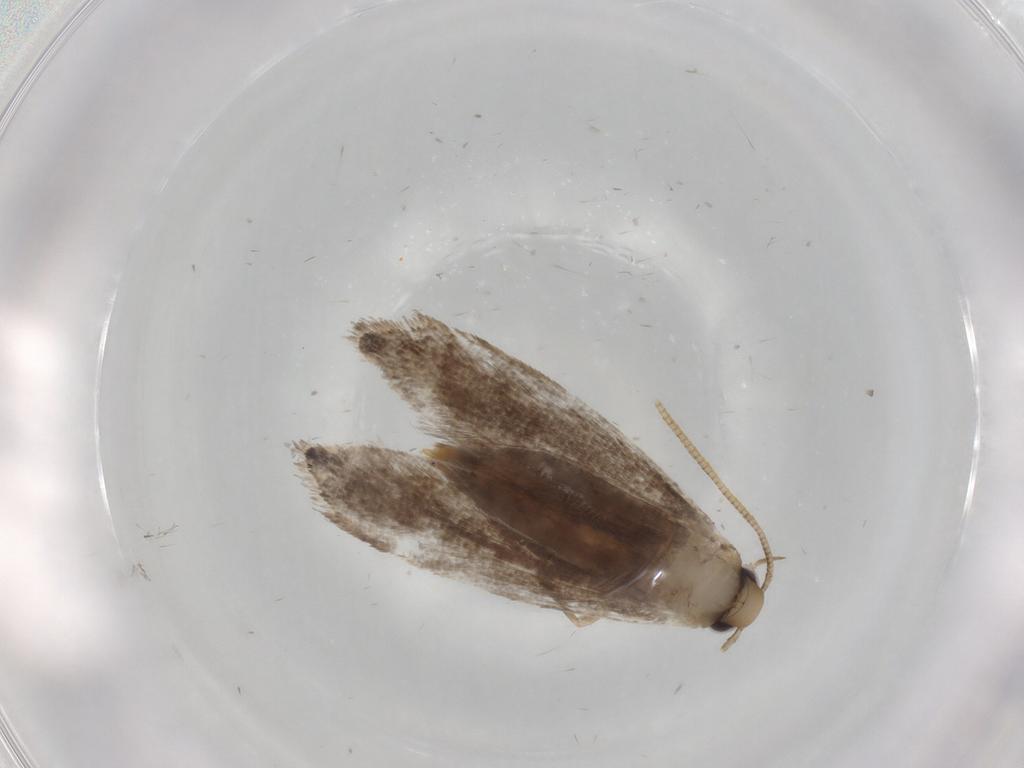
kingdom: Animalia
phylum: Arthropoda
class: Insecta
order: Lepidoptera
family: Tineidae
